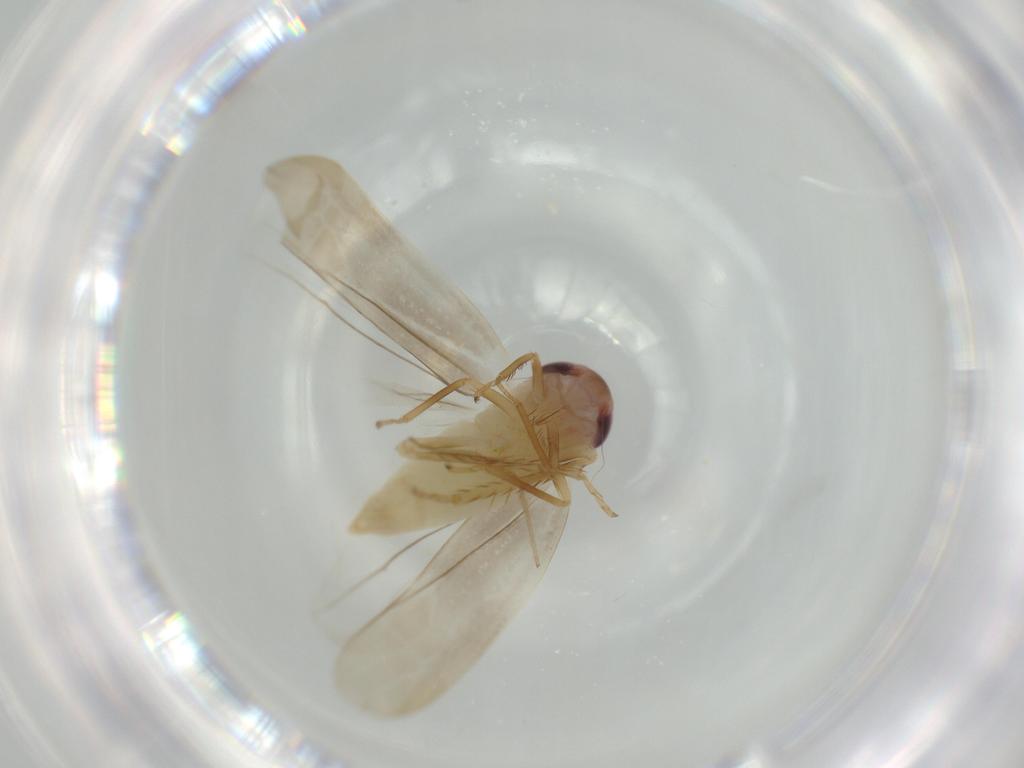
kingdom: Animalia
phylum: Arthropoda
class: Insecta
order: Hemiptera
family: Cicadellidae
